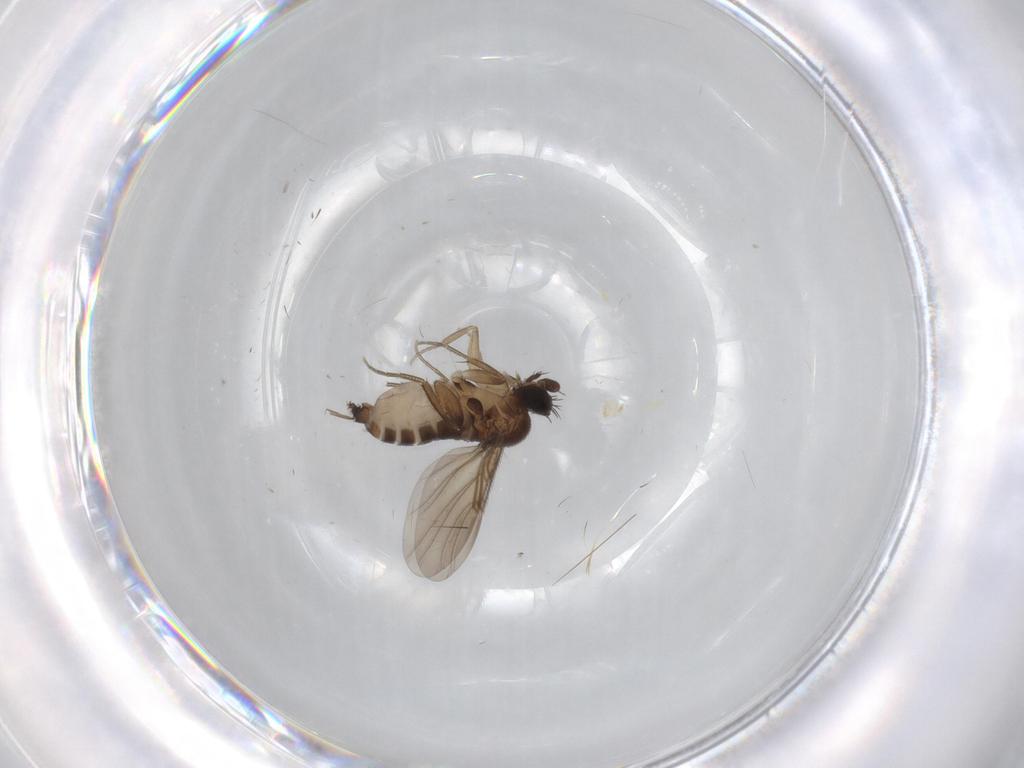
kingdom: Animalia
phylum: Arthropoda
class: Insecta
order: Diptera
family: Phoridae
